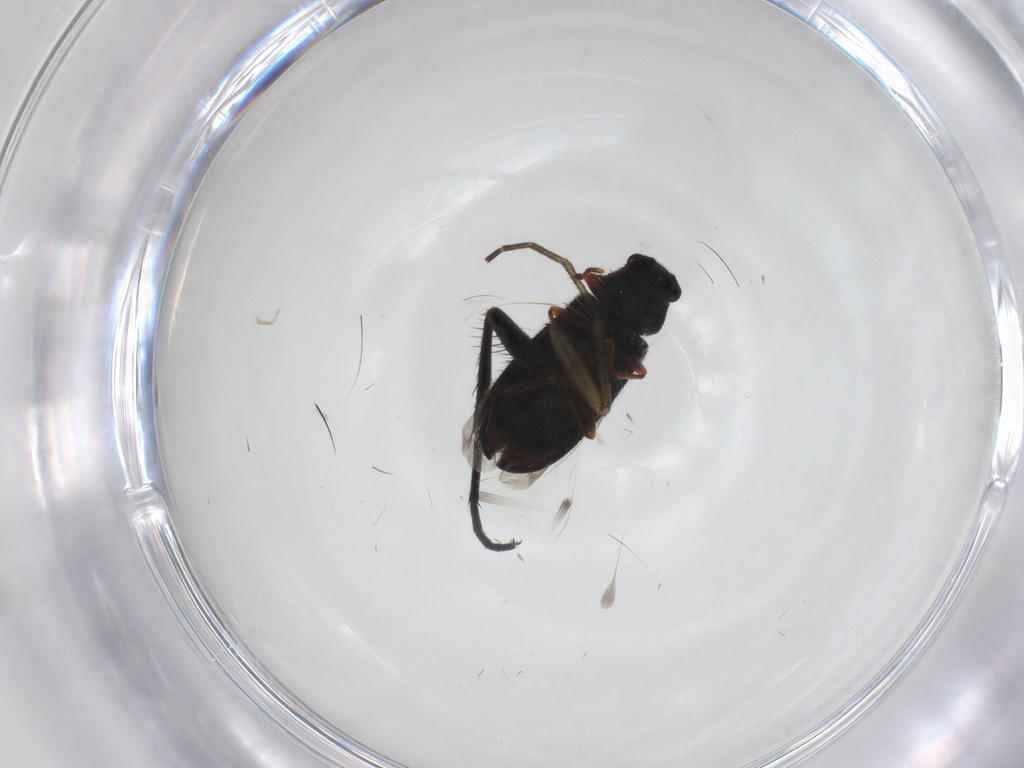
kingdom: Animalia
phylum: Arthropoda
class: Insecta
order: Coleoptera
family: Melyridae
